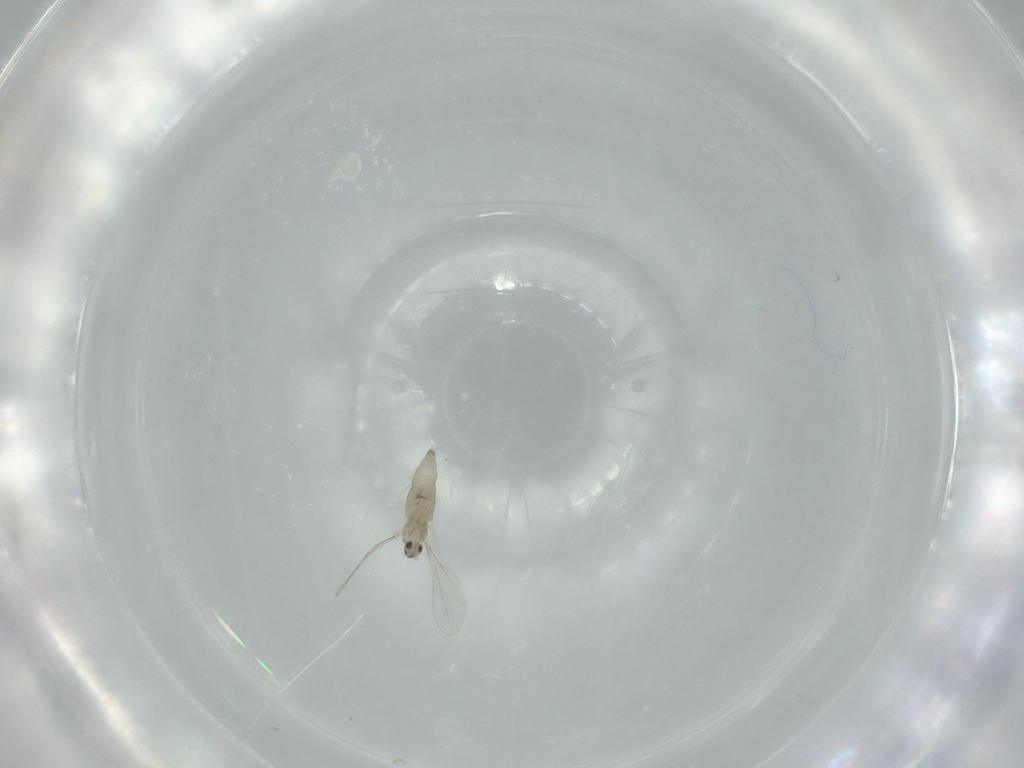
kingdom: Animalia
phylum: Arthropoda
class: Insecta
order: Diptera
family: Cecidomyiidae
